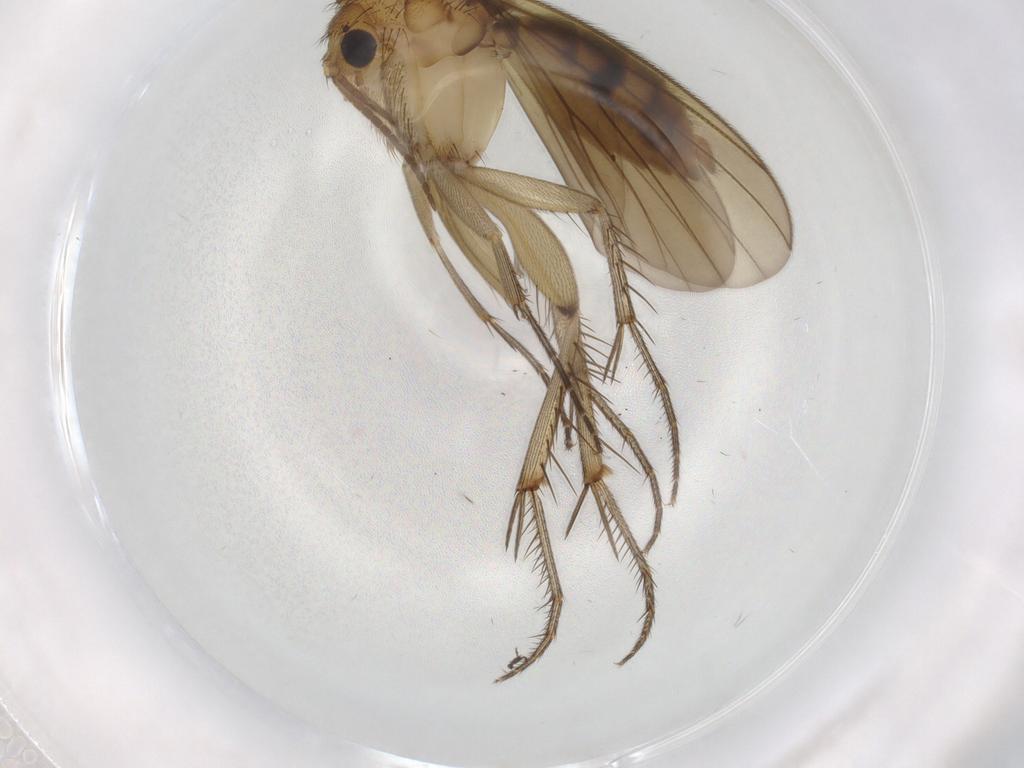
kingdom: Animalia
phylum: Arthropoda
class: Insecta
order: Diptera
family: Mycetophilidae
